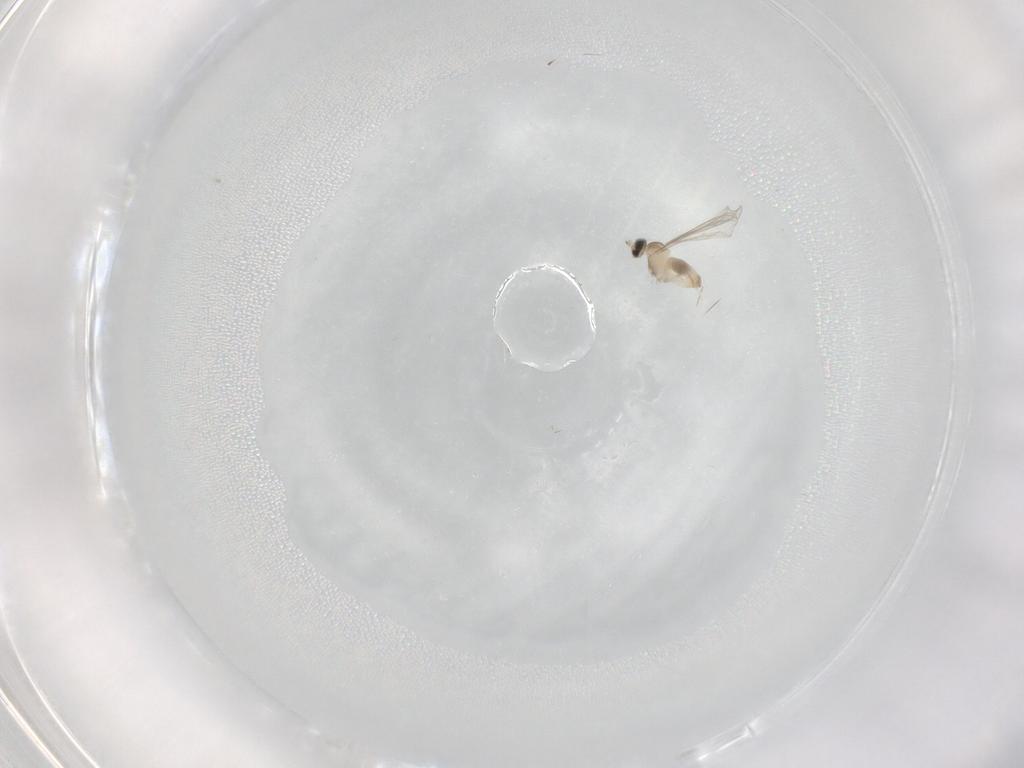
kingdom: Animalia
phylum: Arthropoda
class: Insecta
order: Diptera
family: Cecidomyiidae
